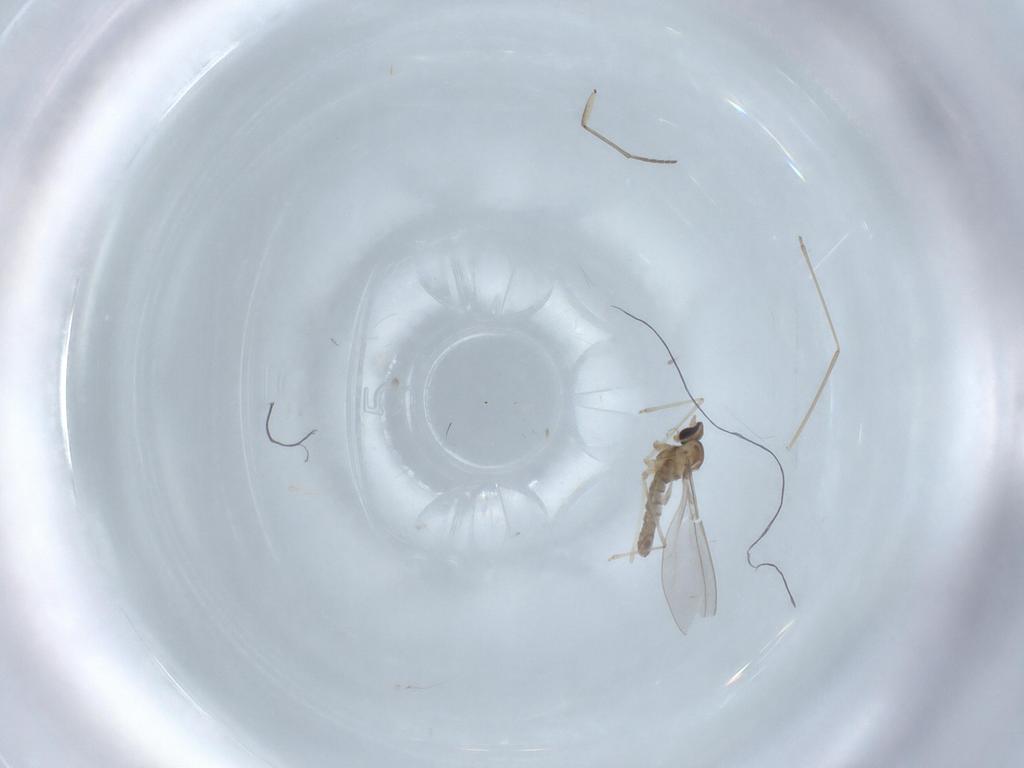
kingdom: Animalia
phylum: Arthropoda
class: Insecta
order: Diptera
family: Cecidomyiidae
